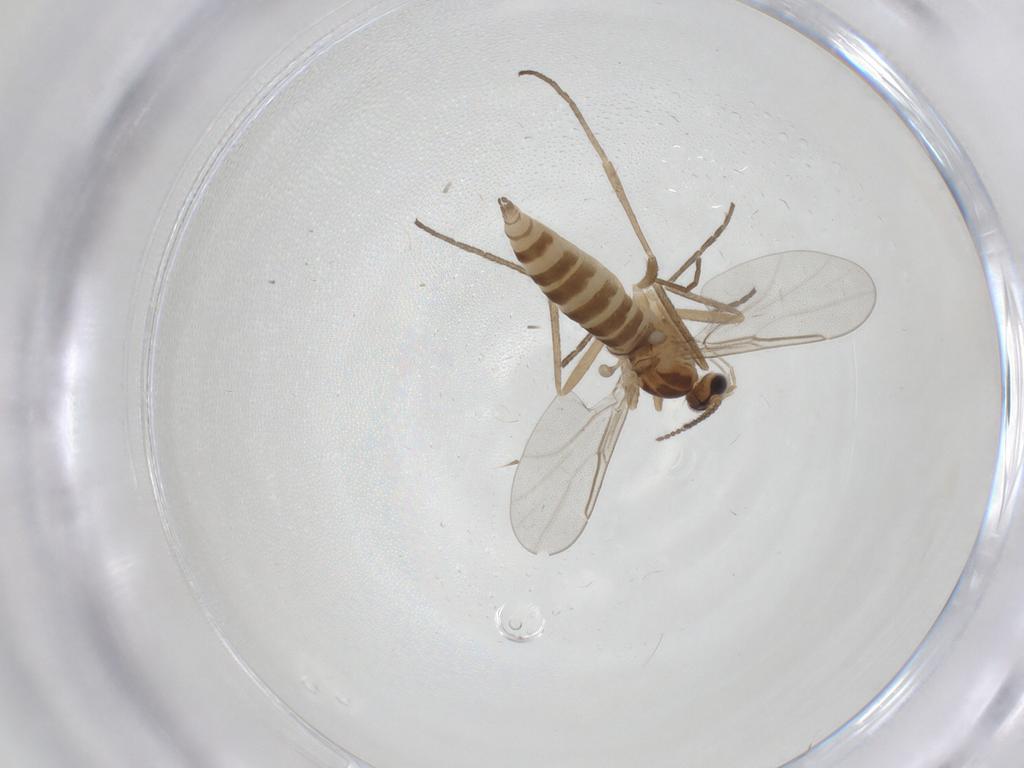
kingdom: Animalia
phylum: Arthropoda
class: Insecta
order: Diptera
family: Cecidomyiidae
